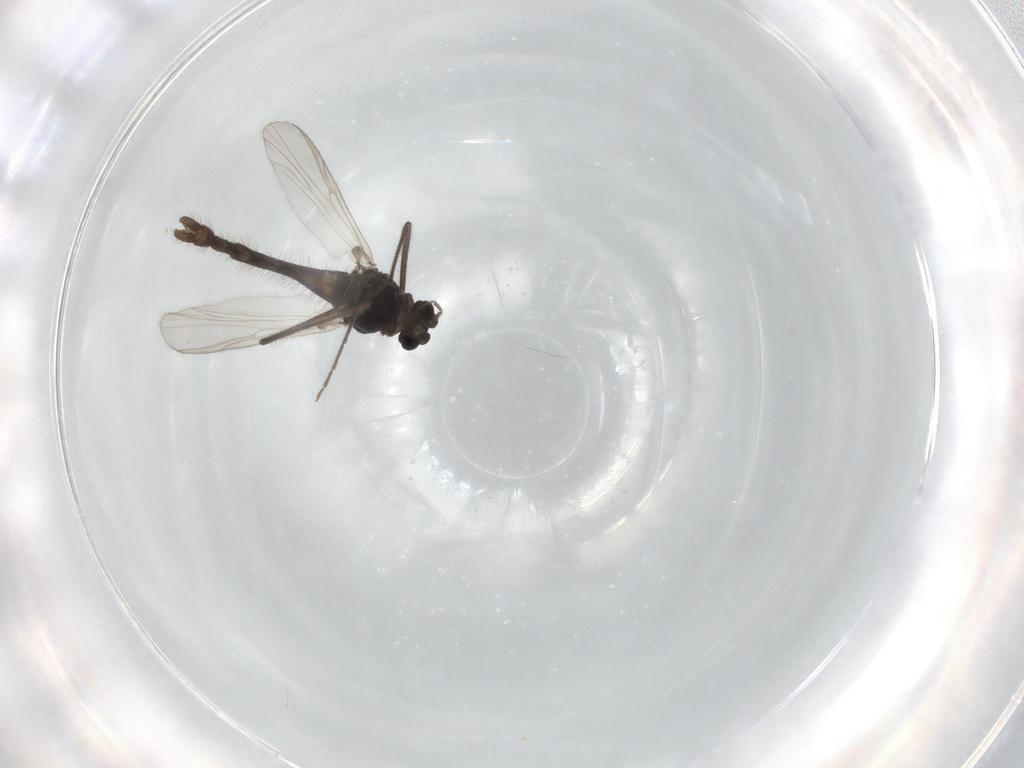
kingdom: Animalia
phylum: Arthropoda
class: Insecta
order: Diptera
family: Chironomidae
